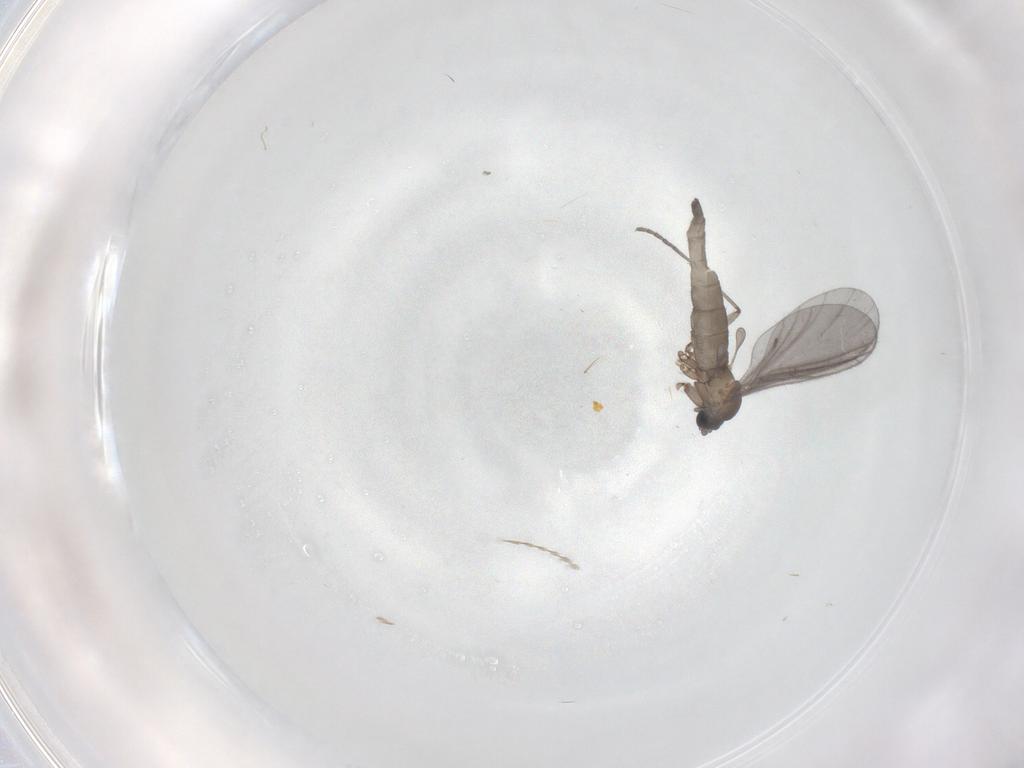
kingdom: Animalia
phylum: Arthropoda
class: Insecta
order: Diptera
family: Sciaridae
